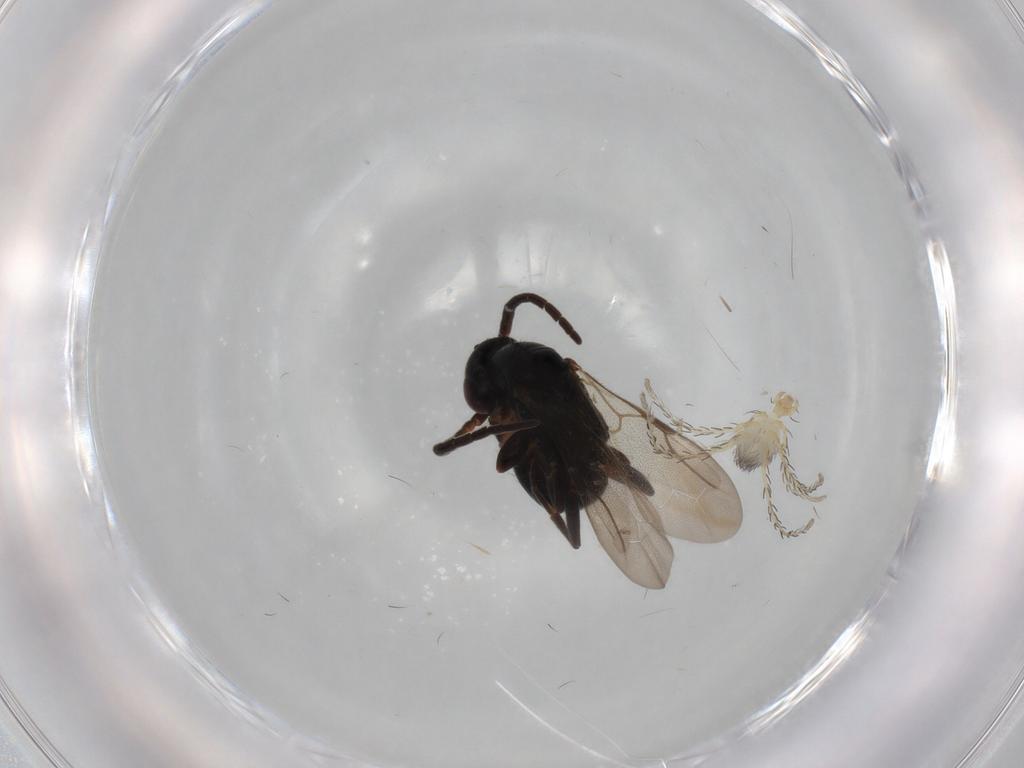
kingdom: Animalia
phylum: Arthropoda
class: Insecta
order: Hymenoptera
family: Bethylidae
